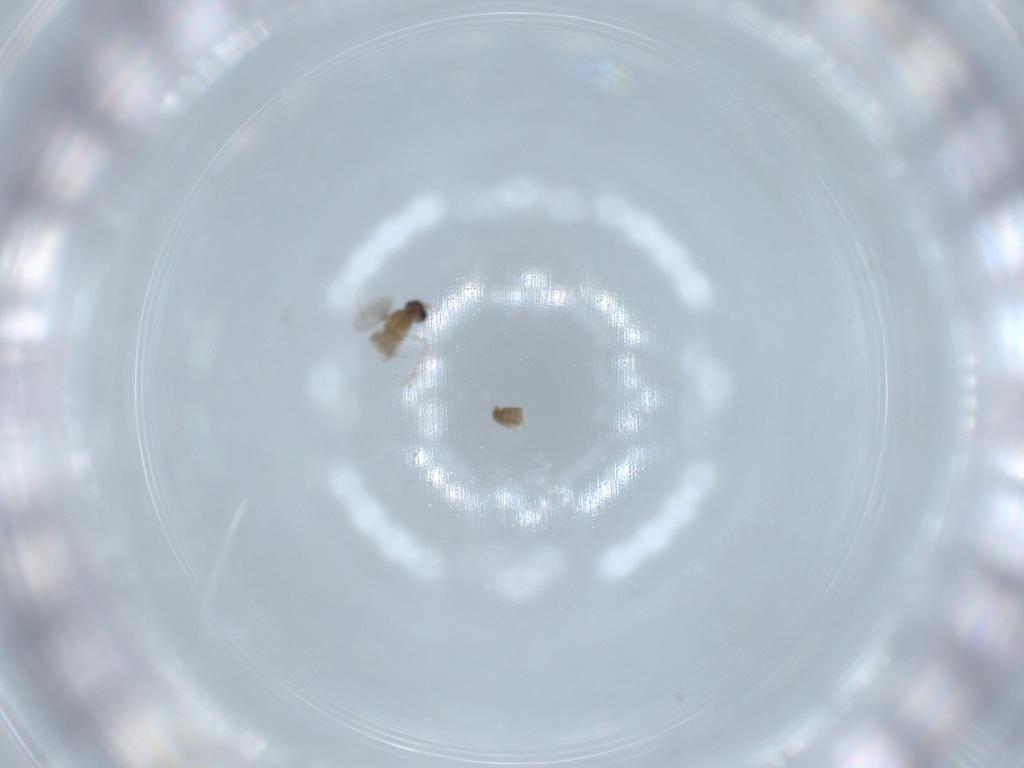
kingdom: Animalia
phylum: Arthropoda
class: Insecta
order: Diptera
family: Cecidomyiidae
